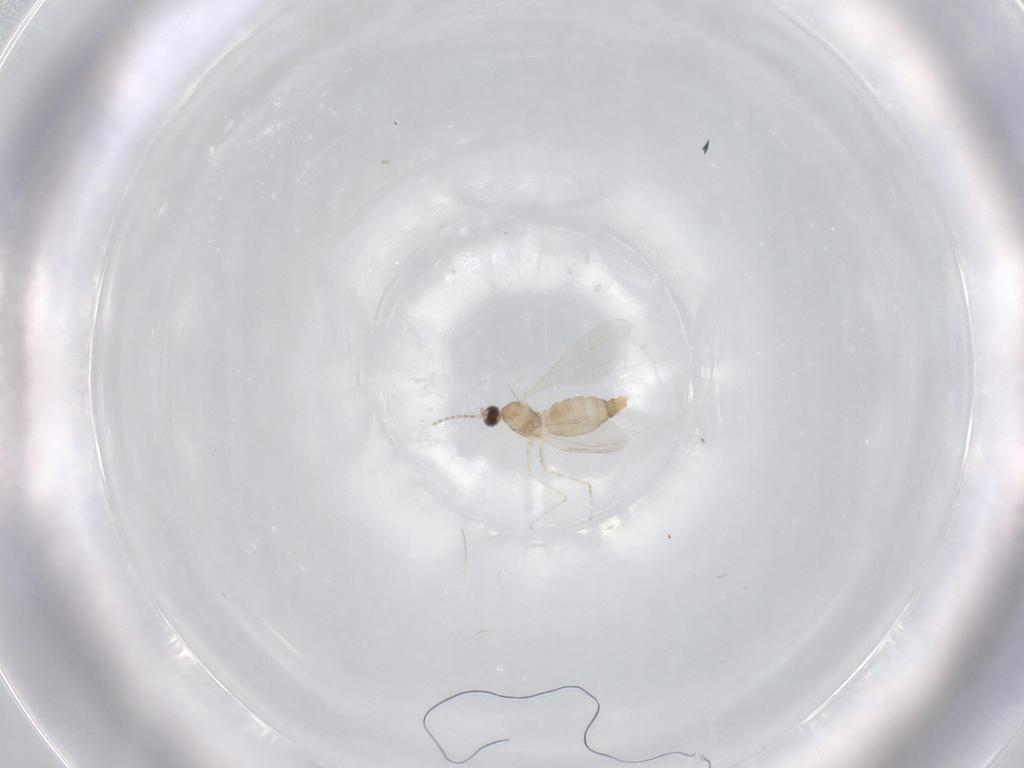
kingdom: Animalia
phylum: Arthropoda
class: Insecta
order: Diptera
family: Cecidomyiidae
